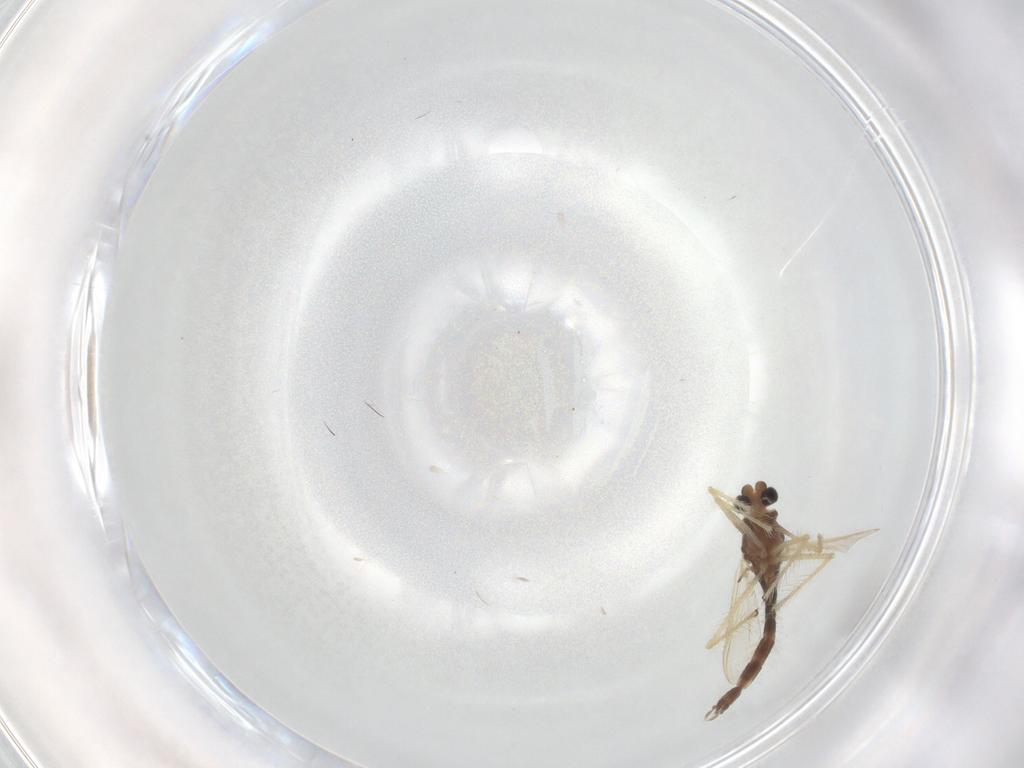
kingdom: Animalia
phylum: Arthropoda
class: Insecta
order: Diptera
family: Chironomidae
